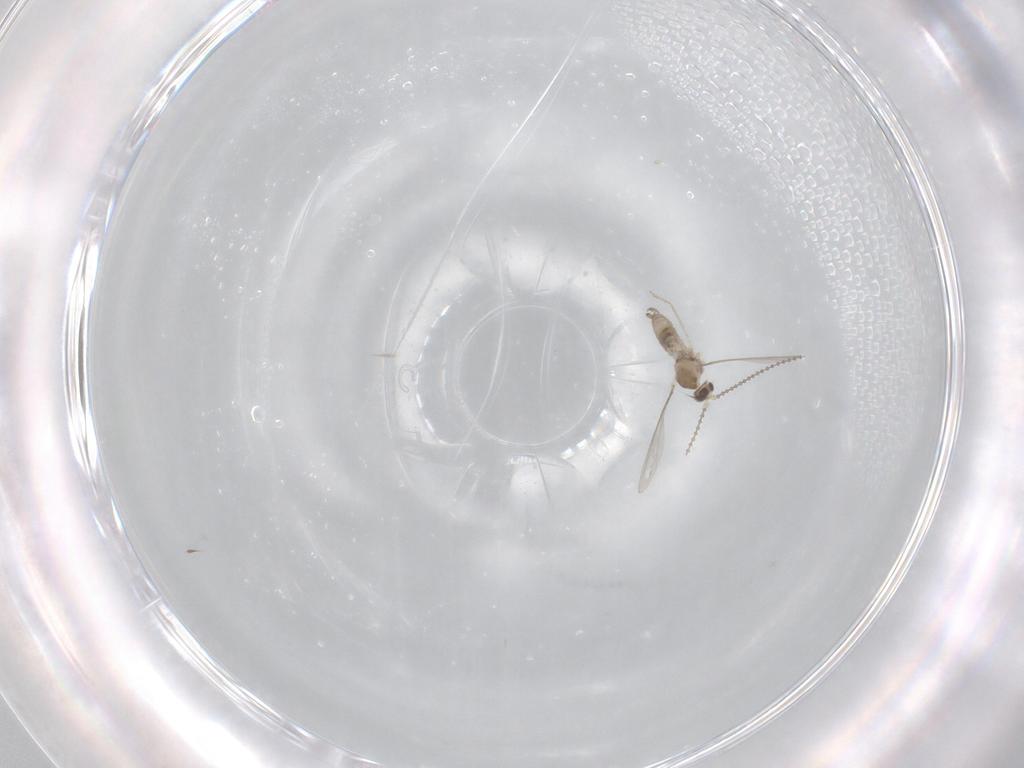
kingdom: Animalia
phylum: Arthropoda
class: Insecta
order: Diptera
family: Cecidomyiidae
